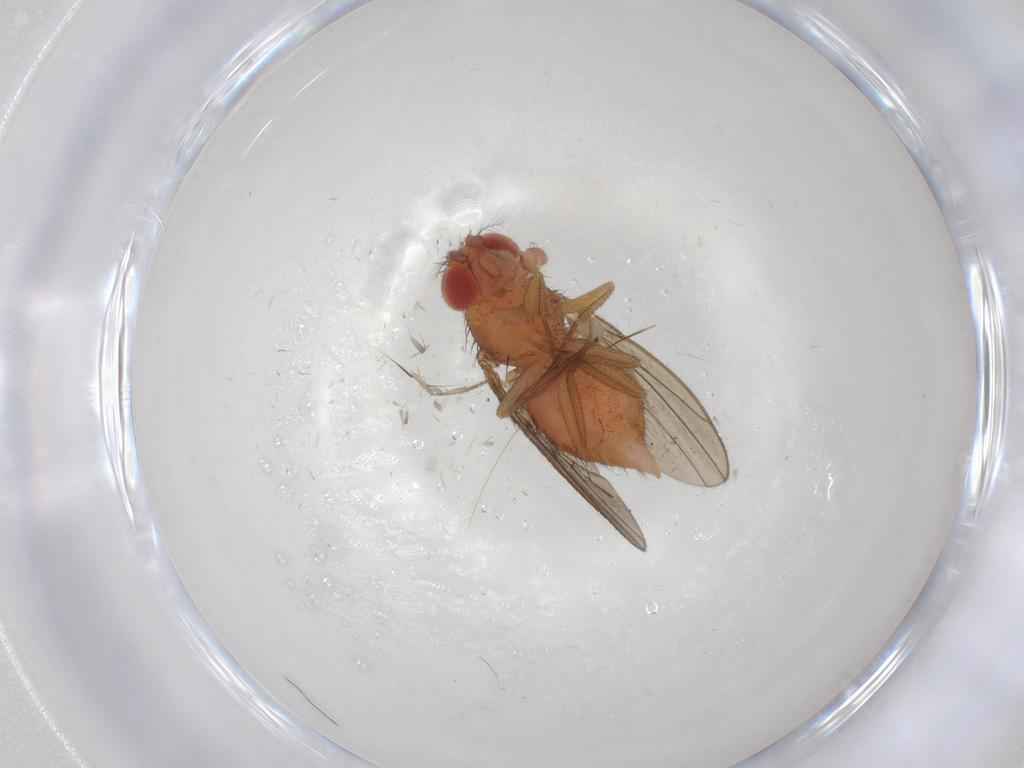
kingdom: Animalia
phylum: Arthropoda
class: Insecta
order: Diptera
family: Drosophilidae
